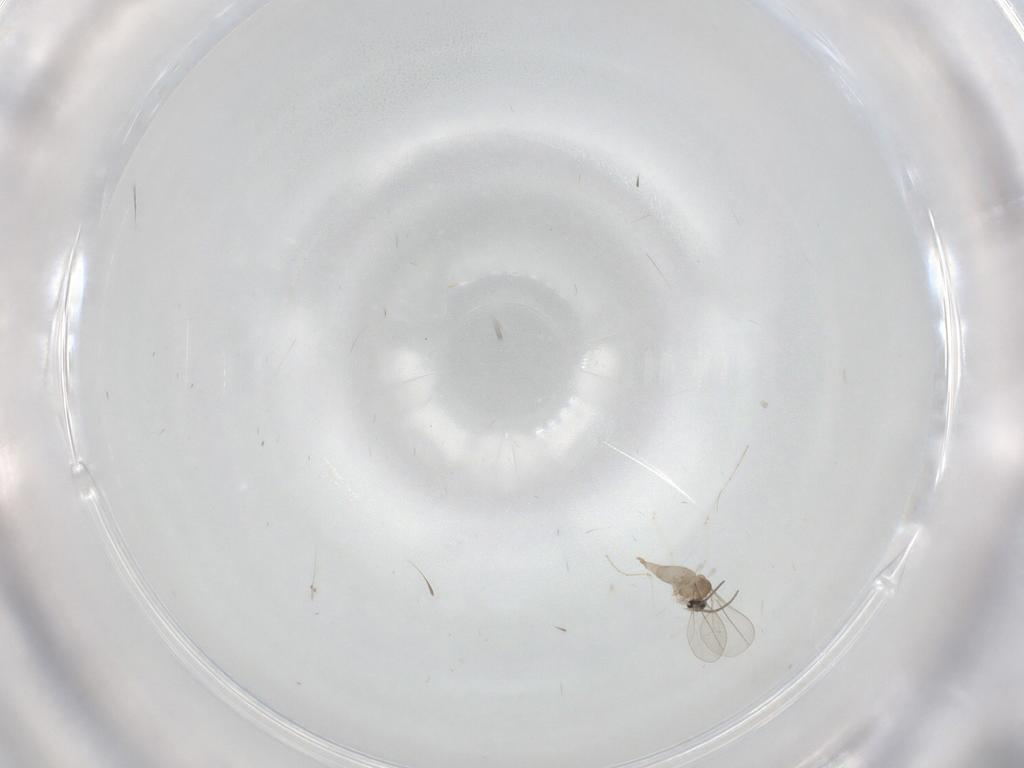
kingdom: Animalia
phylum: Arthropoda
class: Insecta
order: Diptera
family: Cecidomyiidae
